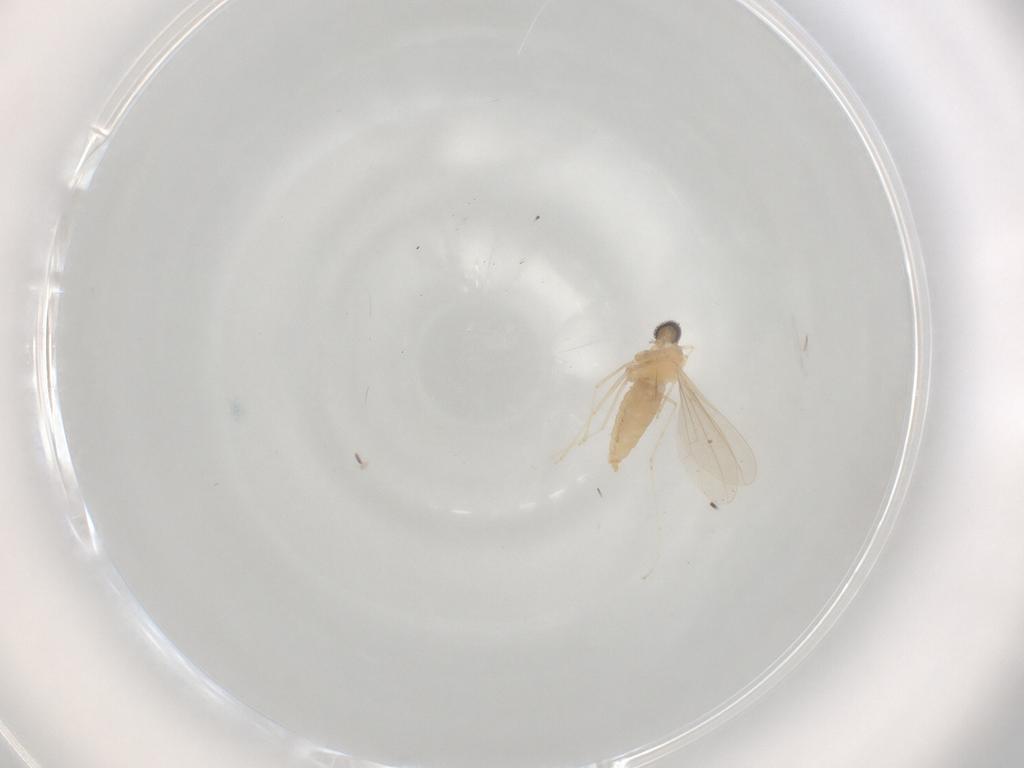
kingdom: Animalia
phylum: Arthropoda
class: Insecta
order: Diptera
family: Cecidomyiidae
